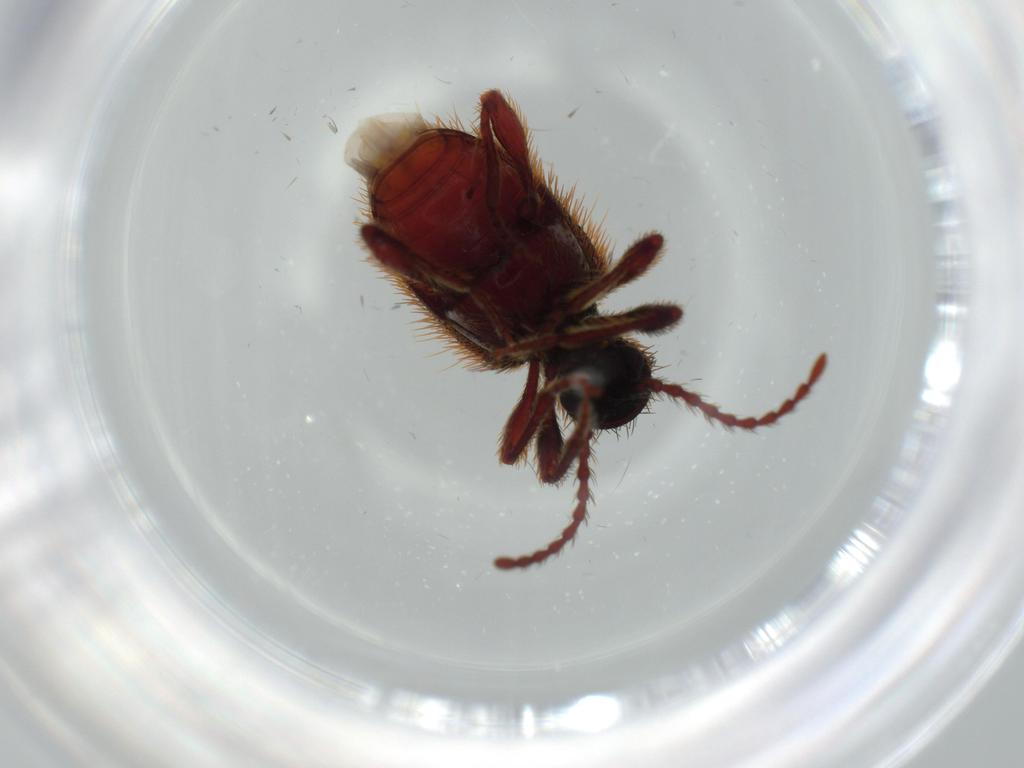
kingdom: Animalia
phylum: Arthropoda
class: Insecta
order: Coleoptera
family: Ptinidae
